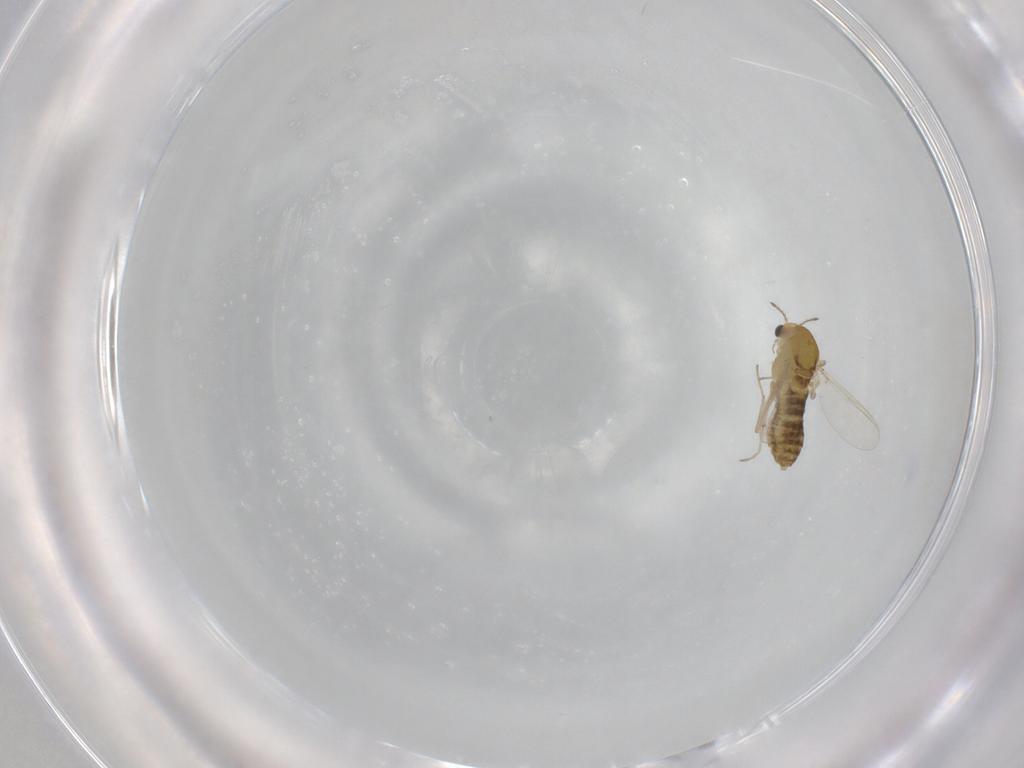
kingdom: Animalia
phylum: Arthropoda
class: Insecta
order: Diptera
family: Chironomidae
